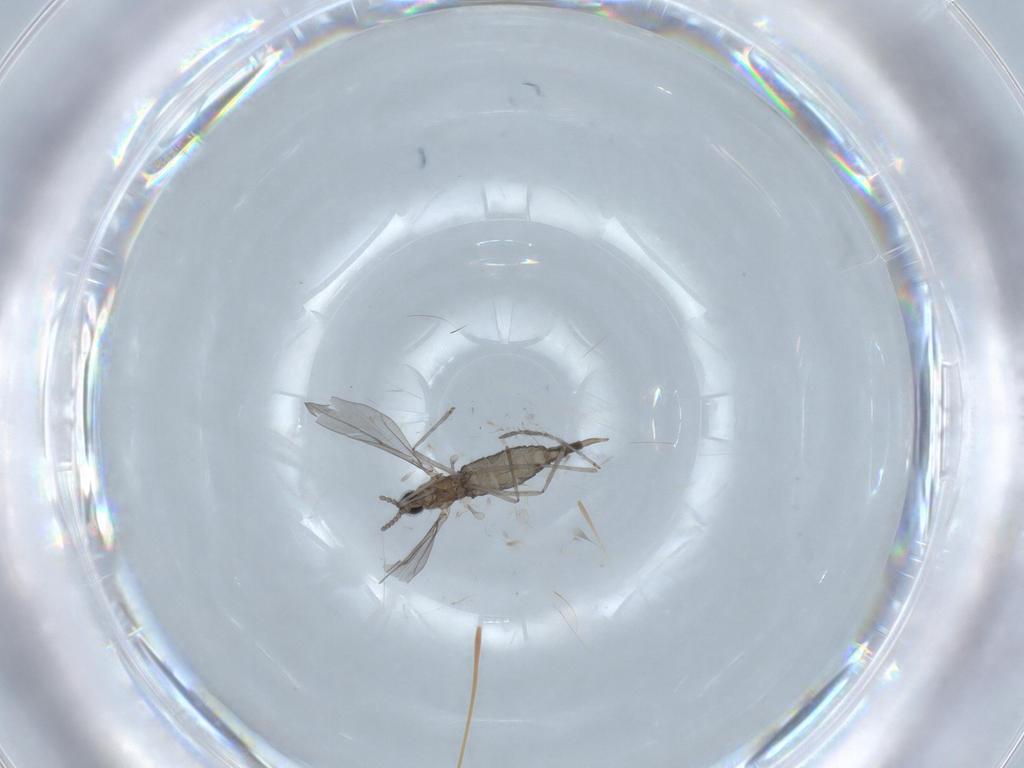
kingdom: Animalia
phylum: Arthropoda
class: Insecta
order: Diptera
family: Cecidomyiidae
